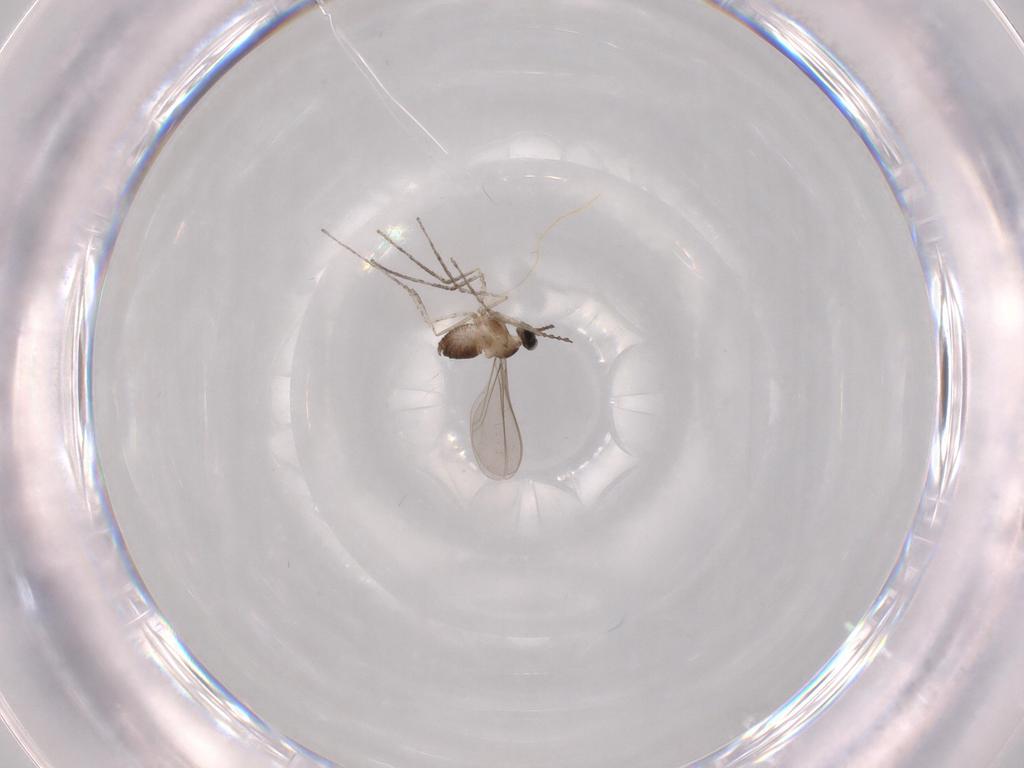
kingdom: Animalia
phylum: Arthropoda
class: Insecta
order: Diptera
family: Cecidomyiidae
